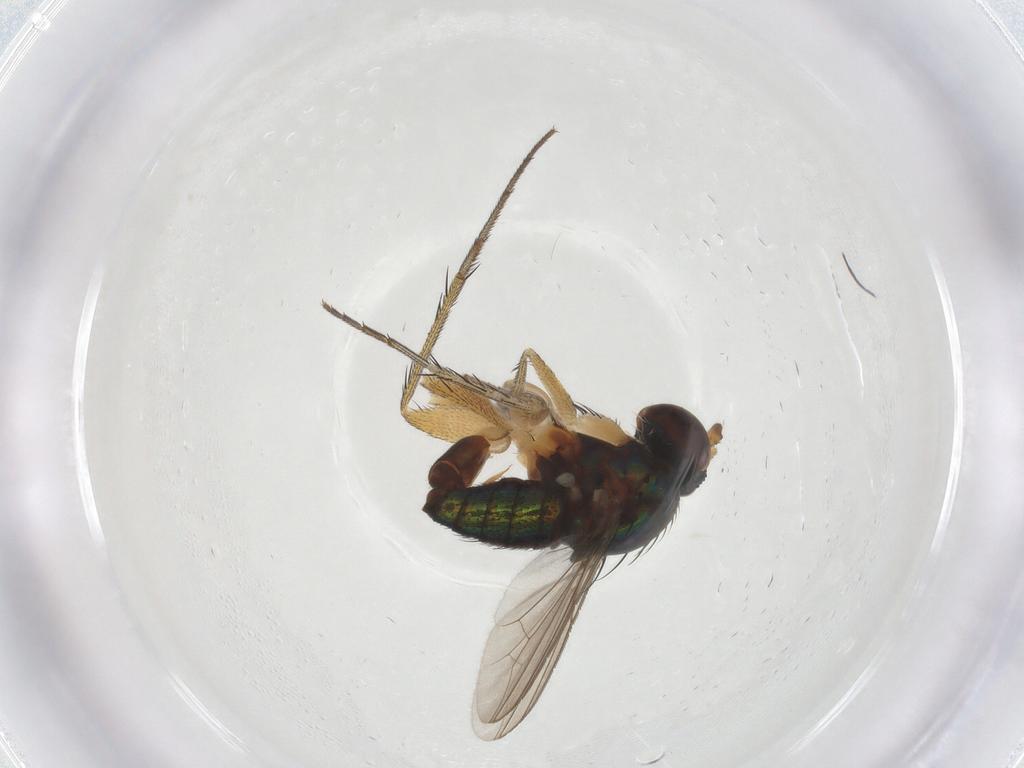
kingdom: Animalia
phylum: Arthropoda
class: Insecta
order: Diptera
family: Dolichopodidae
